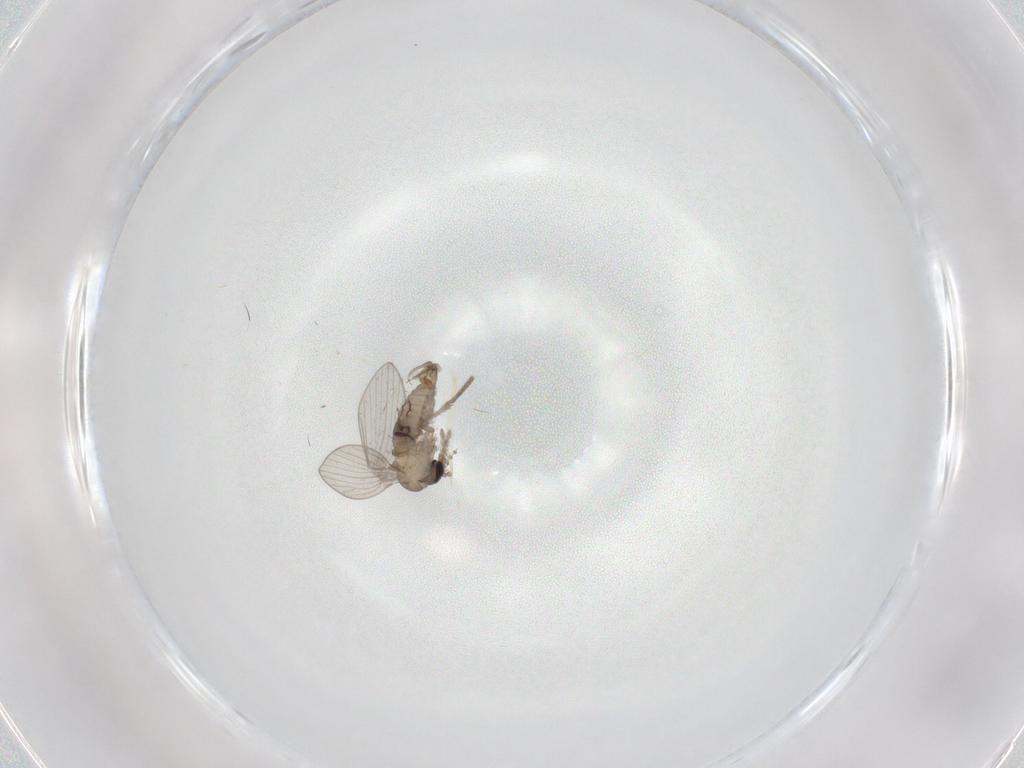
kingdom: Animalia
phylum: Arthropoda
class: Insecta
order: Diptera
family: Psychodidae
